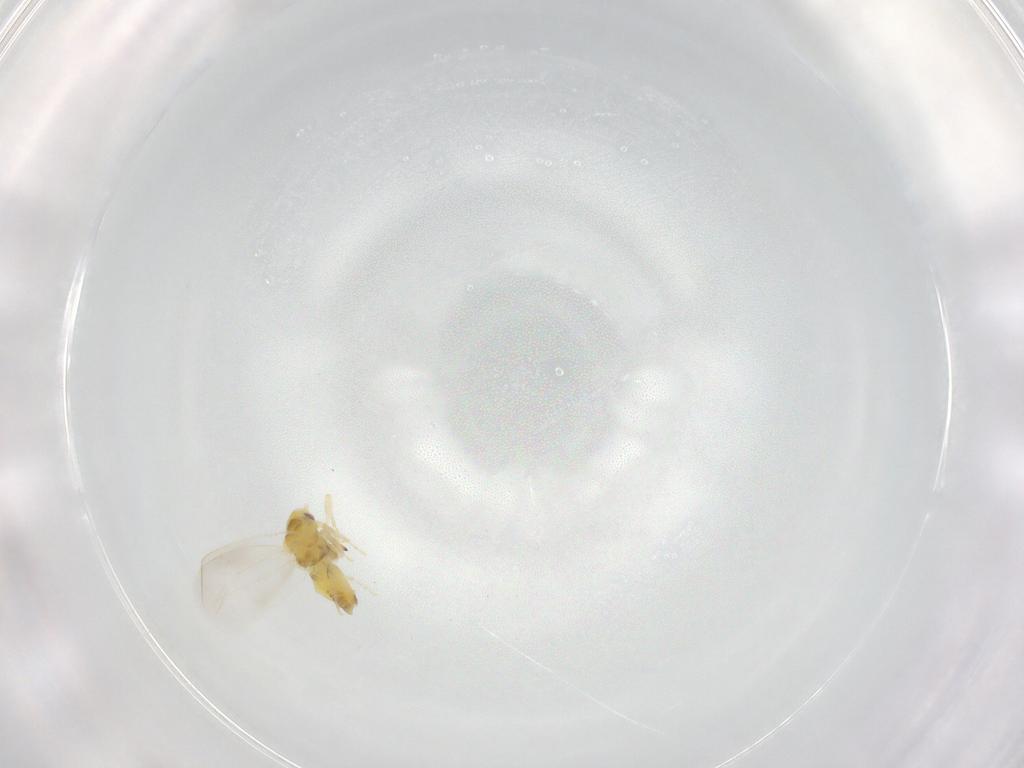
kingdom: Animalia
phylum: Arthropoda
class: Insecta
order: Hemiptera
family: Aleyrodidae
